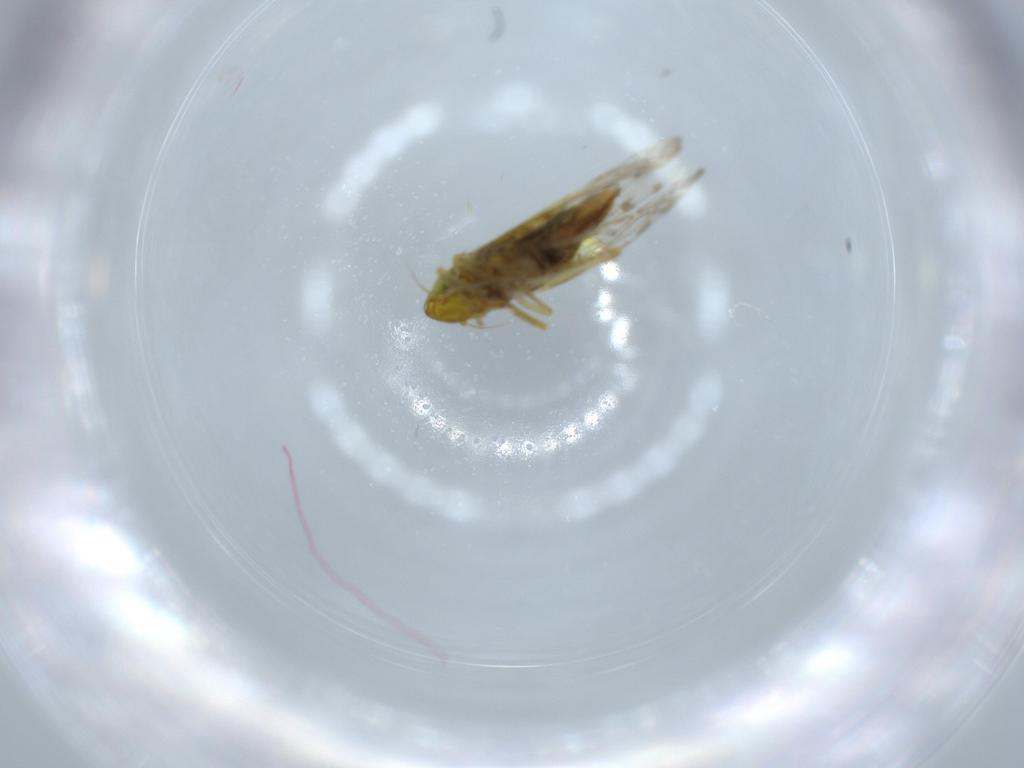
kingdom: Animalia
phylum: Arthropoda
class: Insecta
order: Hemiptera
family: Cicadellidae
